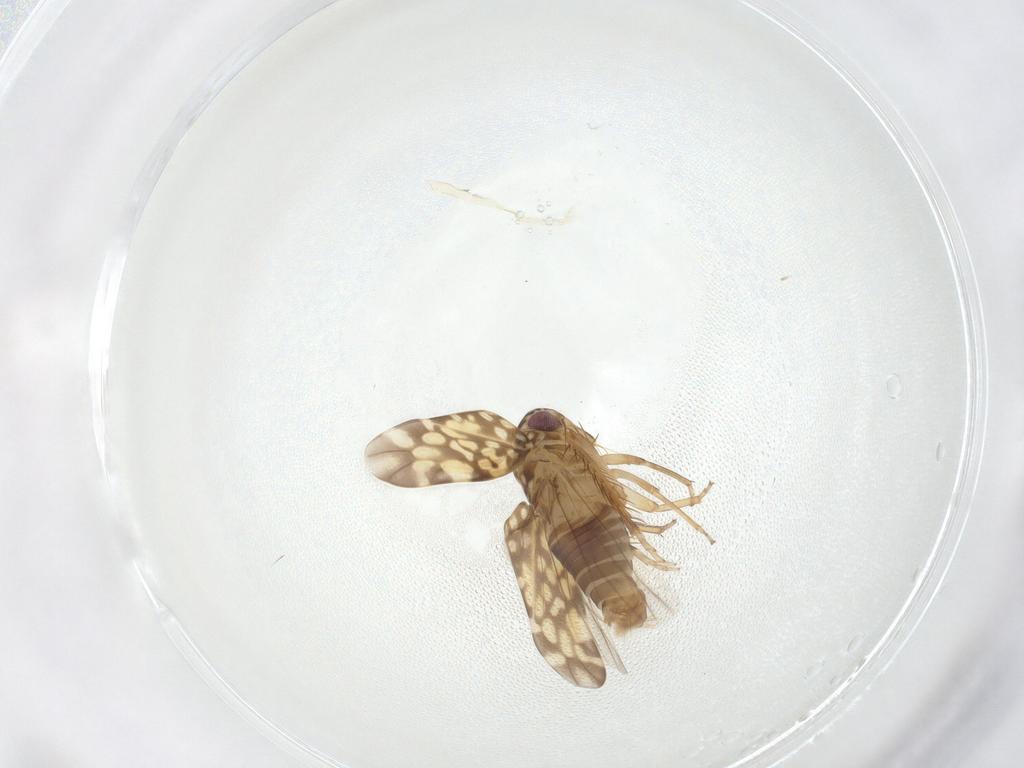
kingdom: Animalia
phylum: Arthropoda
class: Insecta
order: Hemiptera
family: Cicadellidae
